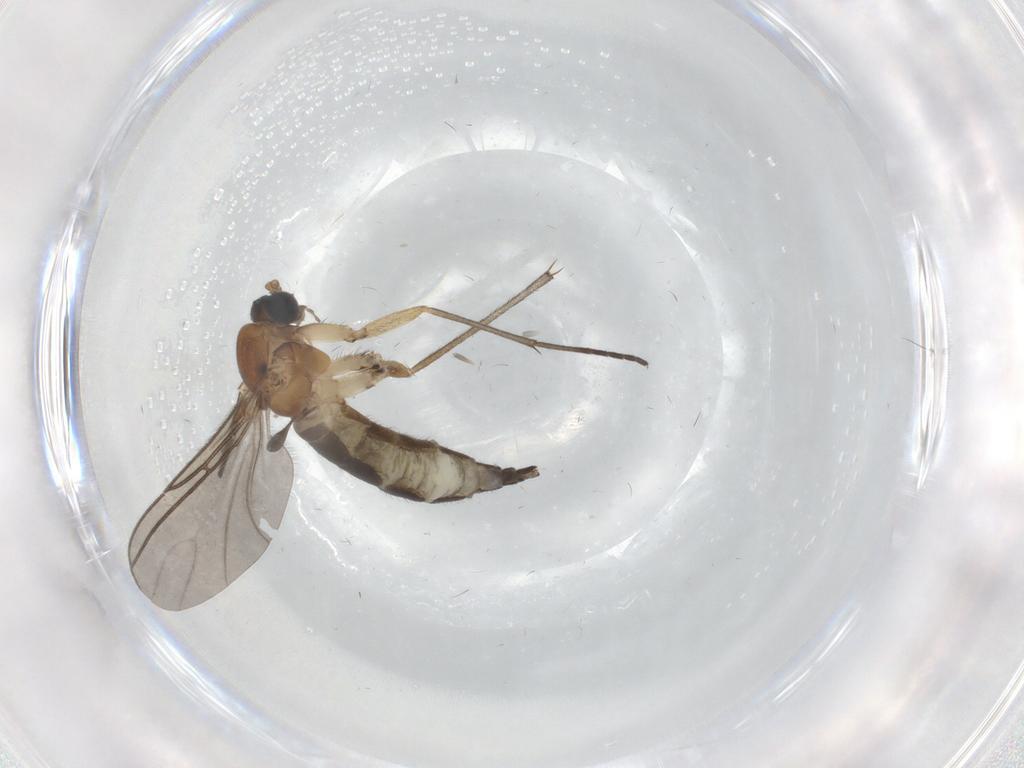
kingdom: Animalia
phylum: Arthropoda
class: Insecta
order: Diptera
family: Sciaridae
